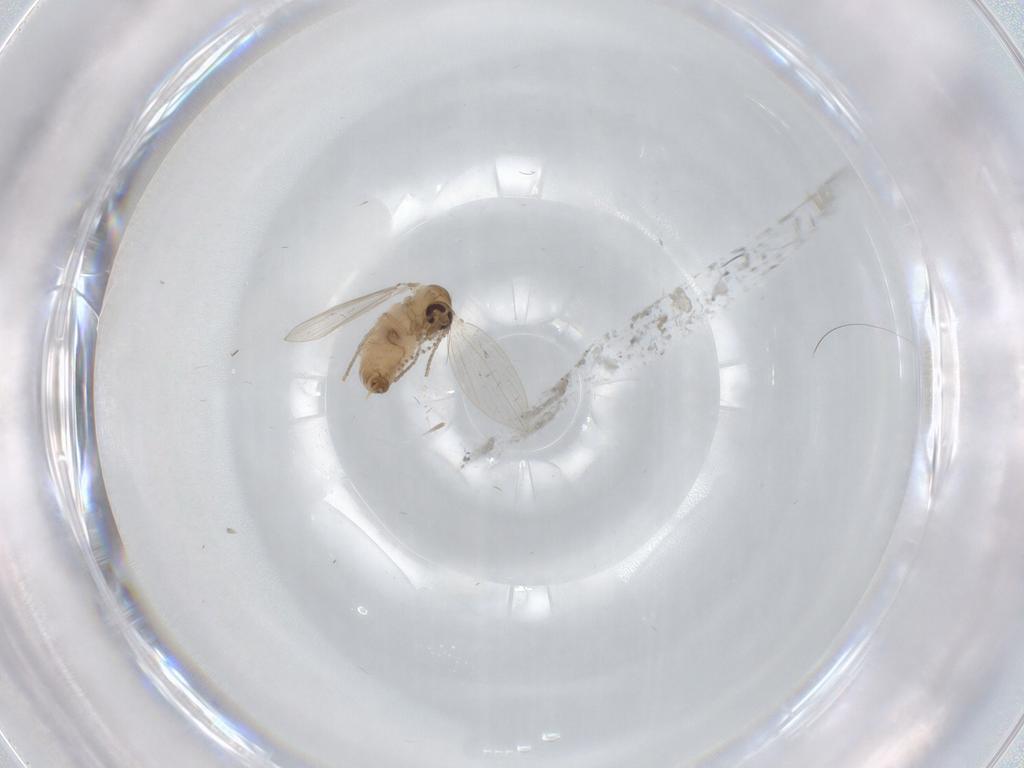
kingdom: Animalia
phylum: Arthropoda
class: Insecta
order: Diptera
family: Psychodidae
